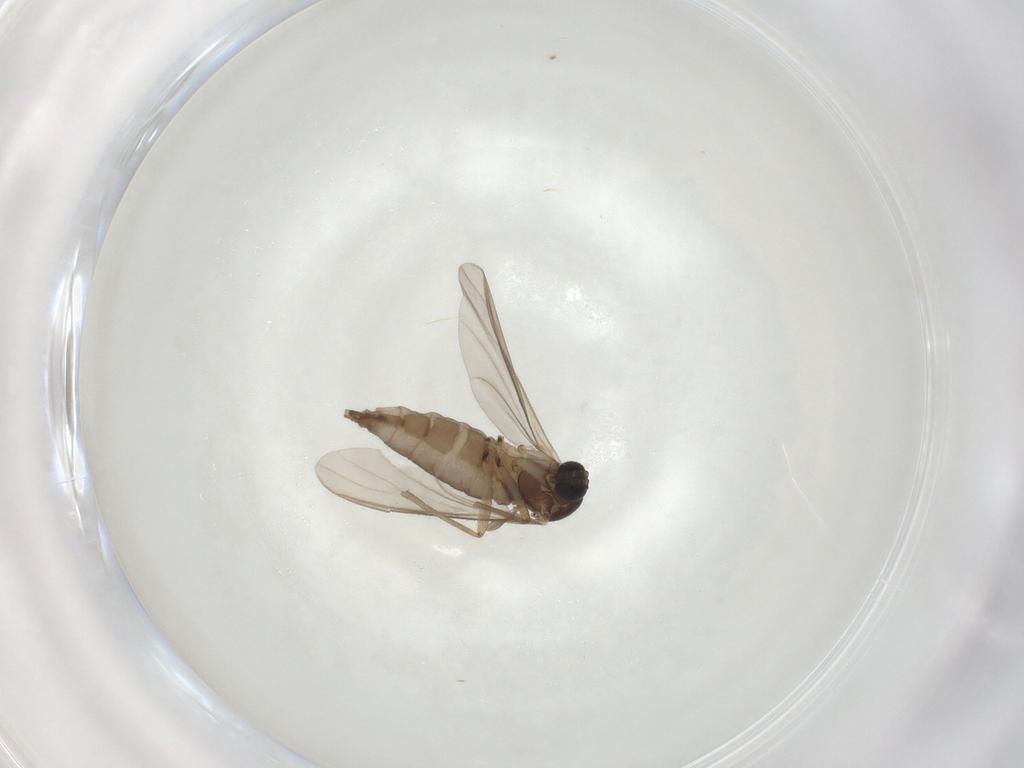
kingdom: Animalia
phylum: Arthropoda
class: Insecta
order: Diptera
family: Sciaridae
